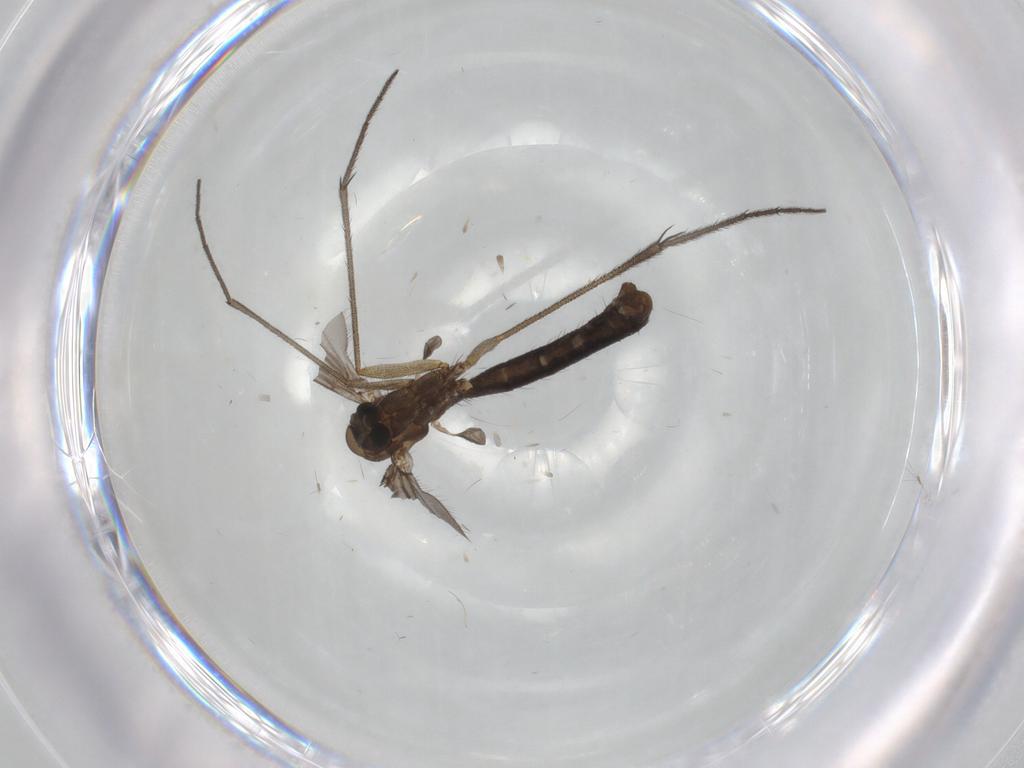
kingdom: Animalia
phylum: Arthropoda
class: Insecta
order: Diptera
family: Ditomyiidae
